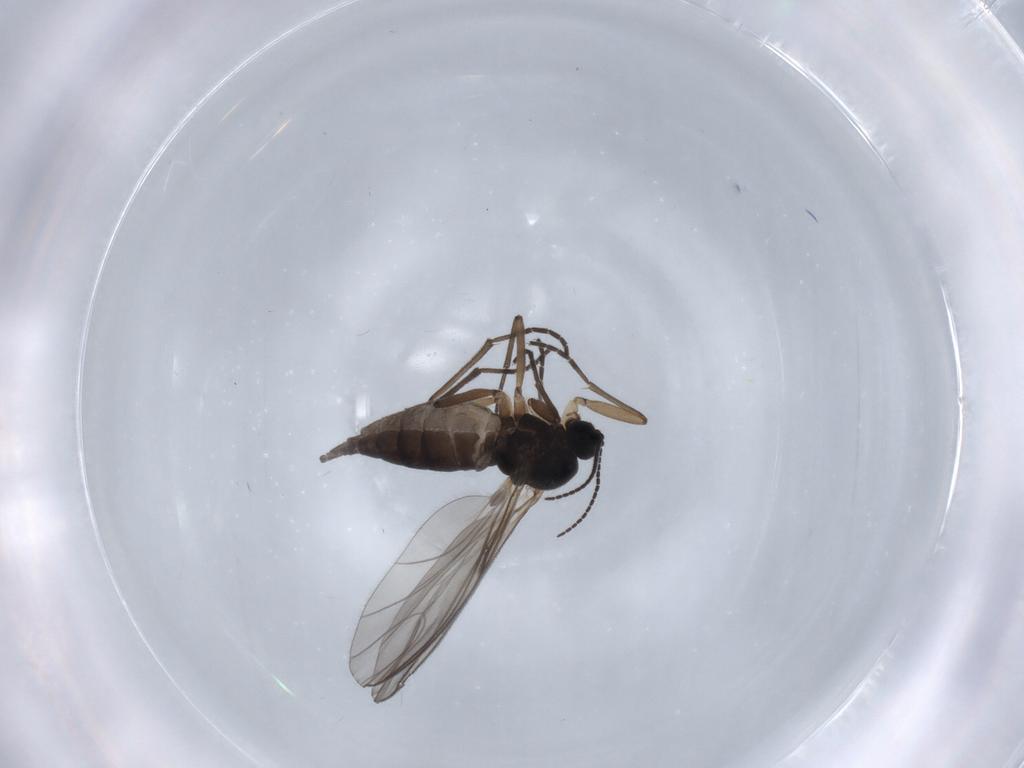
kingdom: Animalia
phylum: Arthropoda
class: Insecta
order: Diptera
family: Sciaridae
